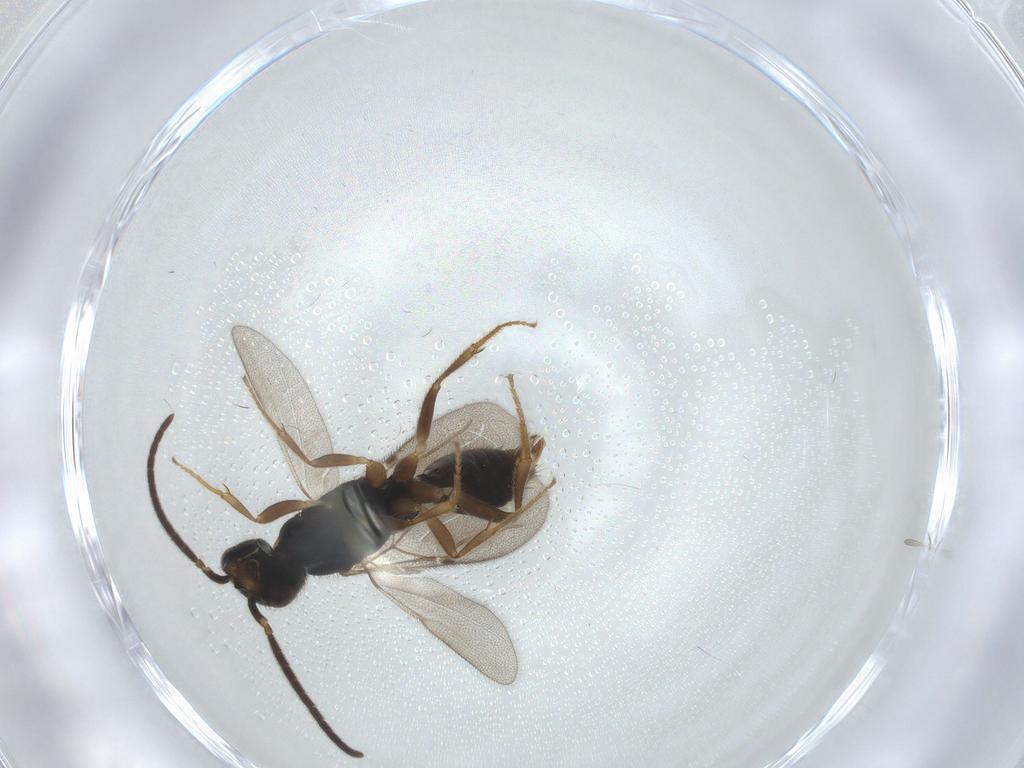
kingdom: Animalia
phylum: Arthropoda
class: Insecta
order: Hymenoptera
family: Bethylidae
